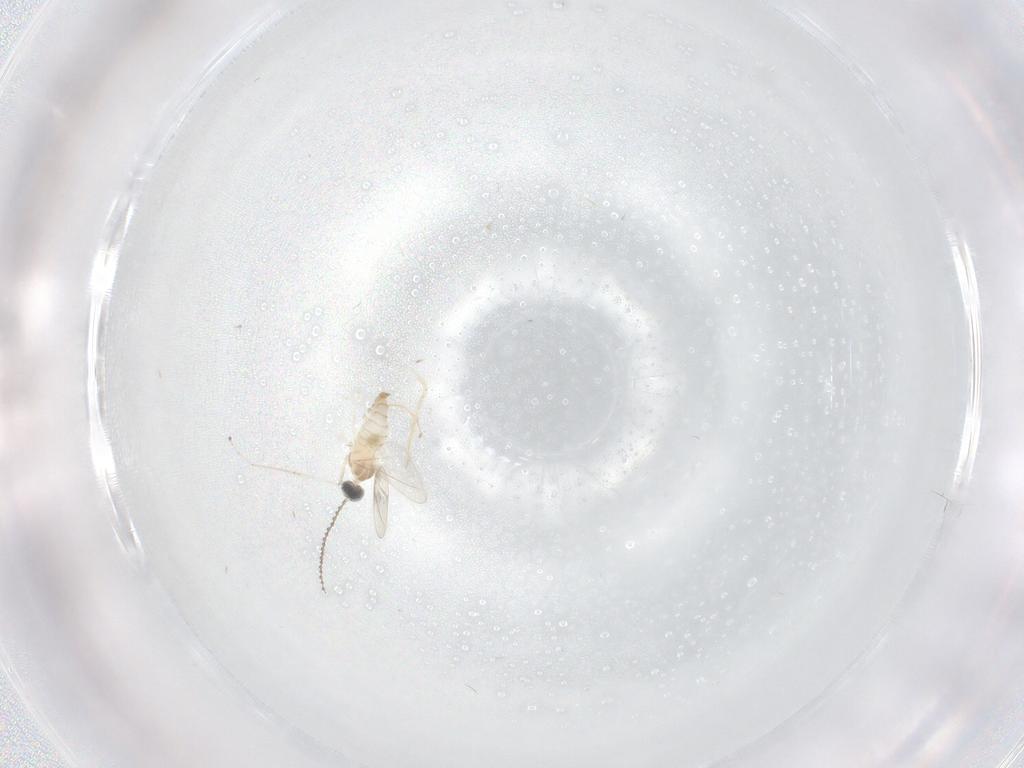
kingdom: Animalia
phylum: Arthropoda
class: Insecta
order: Diptera
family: Cecidomyiidae
